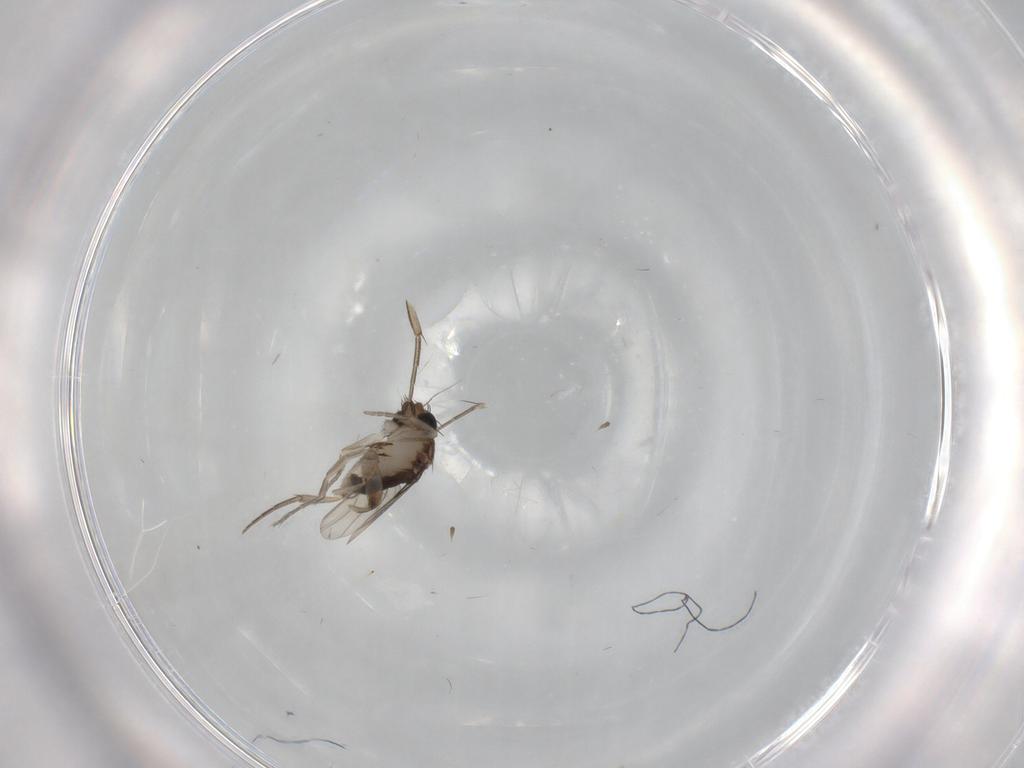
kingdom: Animalia
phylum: Arthropoda
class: Insecta
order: Diptera
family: Phoridae
